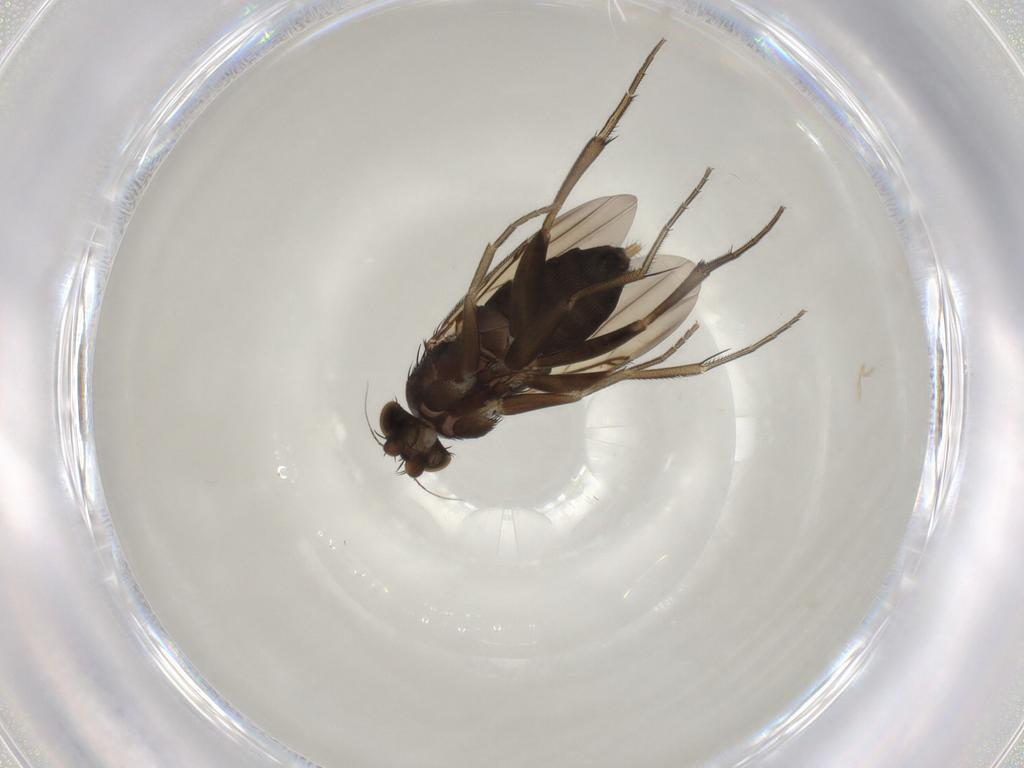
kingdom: Animalia
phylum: Arthropoda
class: Insecta
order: Diptera
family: Phoridae
